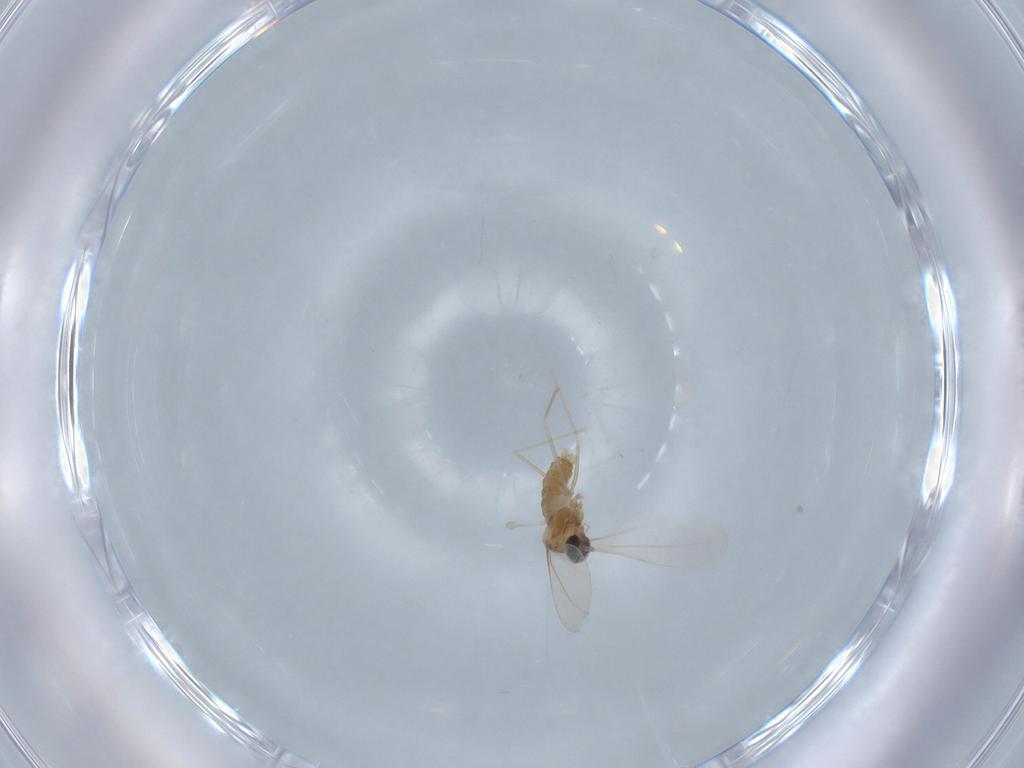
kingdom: Animalia
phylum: Arthropoda
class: Insecta
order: Diptera
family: Cecidomyiidae
